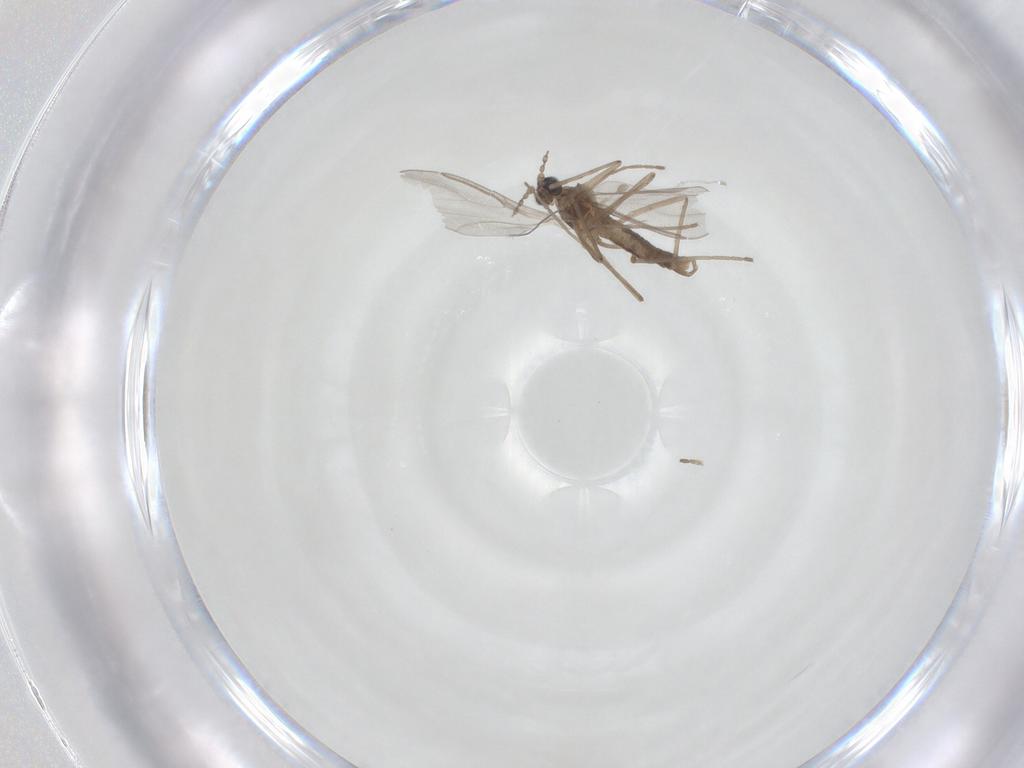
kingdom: Animalia
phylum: Arthropoda
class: Insecta
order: Diptera
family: Cecidomyiidae
